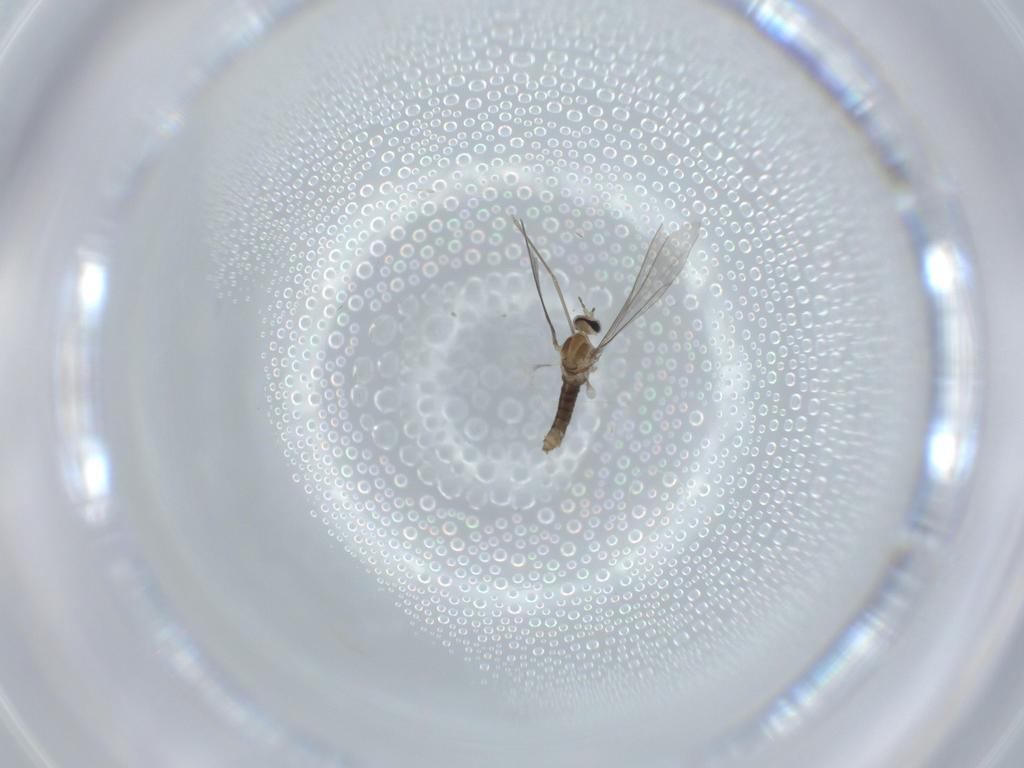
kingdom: Animalia
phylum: Arthropoda
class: Insecta
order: Diptera
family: Cecidomyiidae
